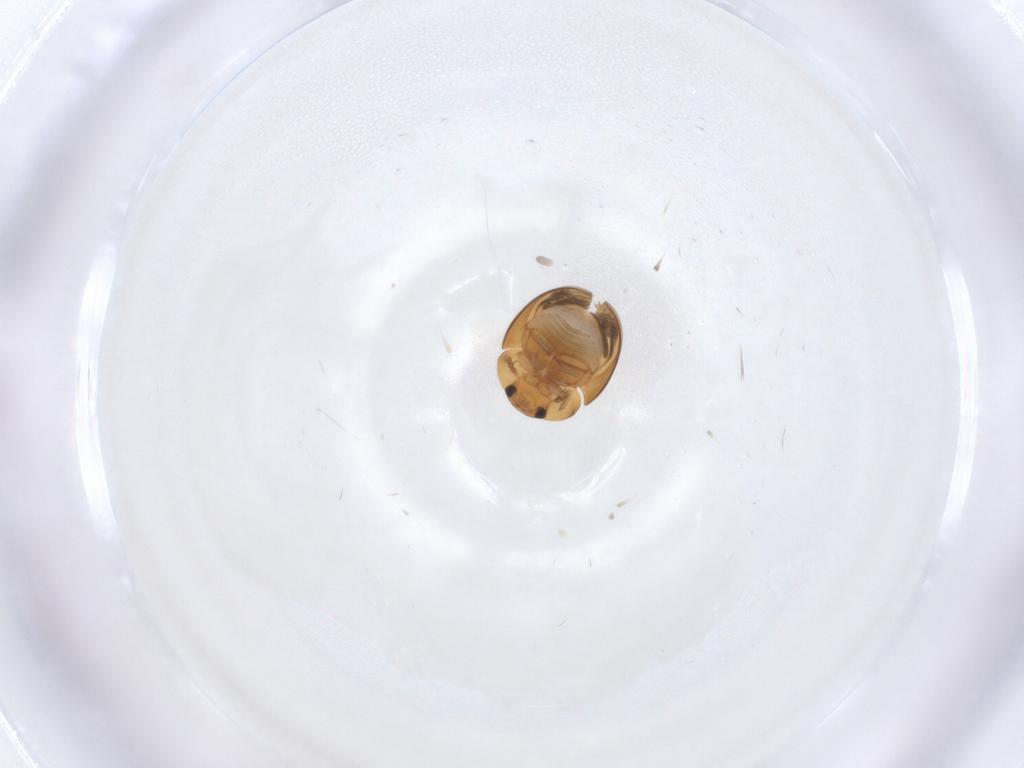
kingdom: Animalia
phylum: Arthropoda
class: Insecta
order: Coleoptera
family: Phalacridae
